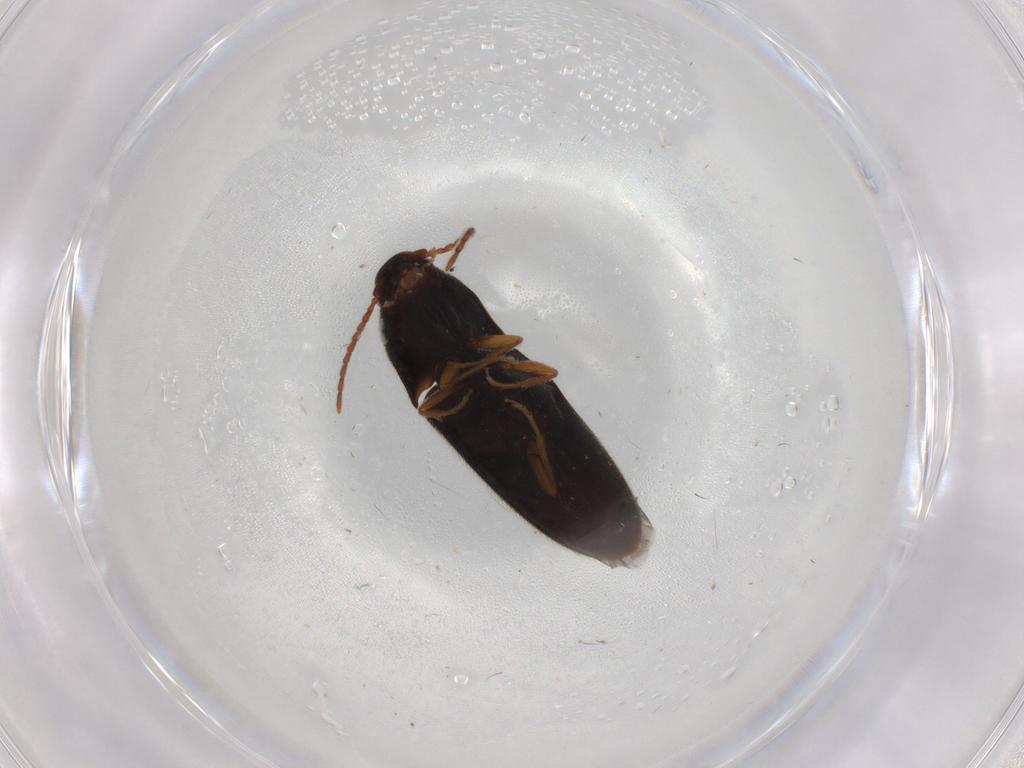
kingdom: Animalia
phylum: Arthropoda
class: Insecta
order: Coleoptera
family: Elateridae
